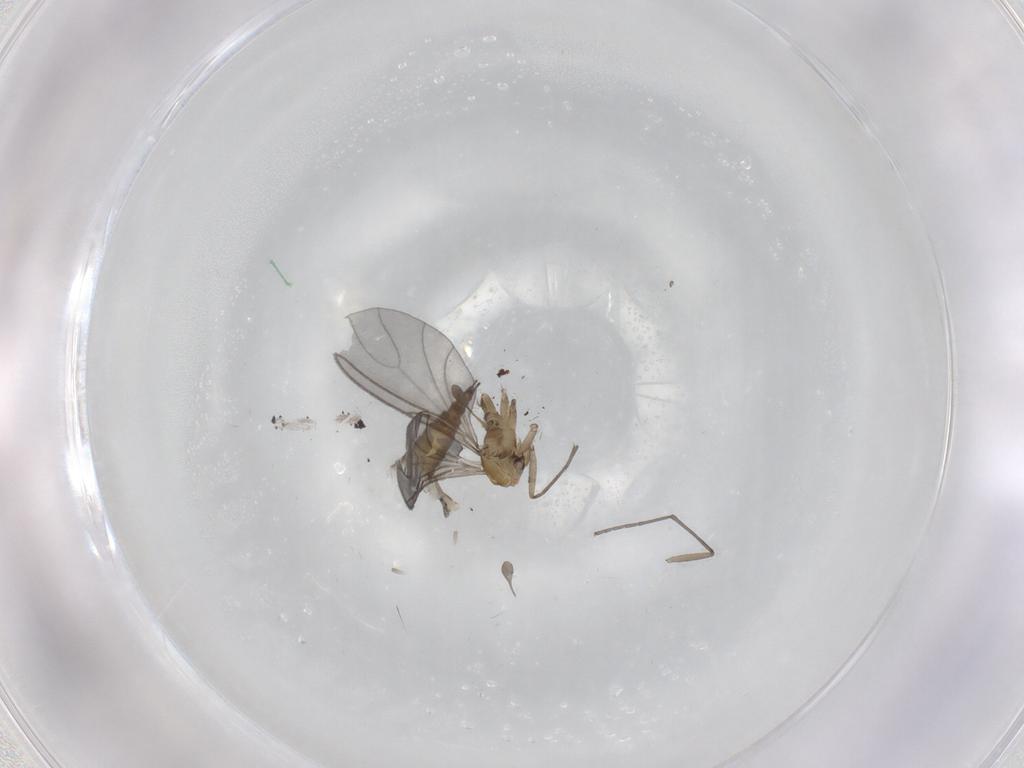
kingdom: Animalia
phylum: Arthropoda
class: Insecta
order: Diptera
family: Sciaridae
